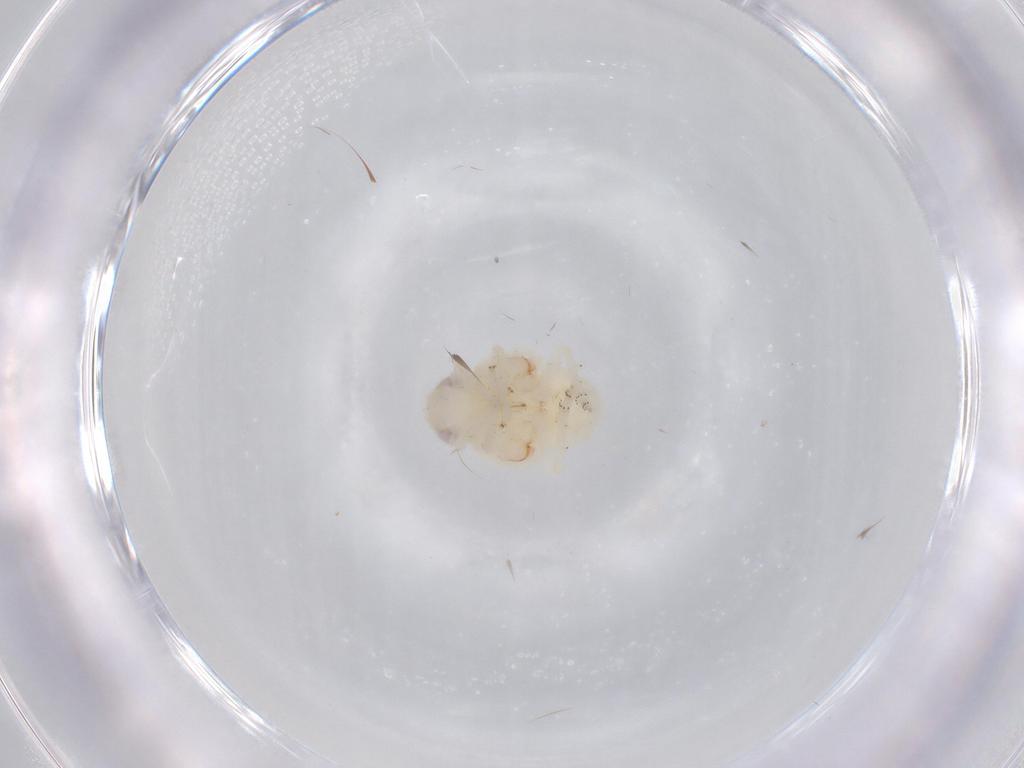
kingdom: Animalia
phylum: Arthropoda
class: Insecta
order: Hemiptera
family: Nogodinidae
